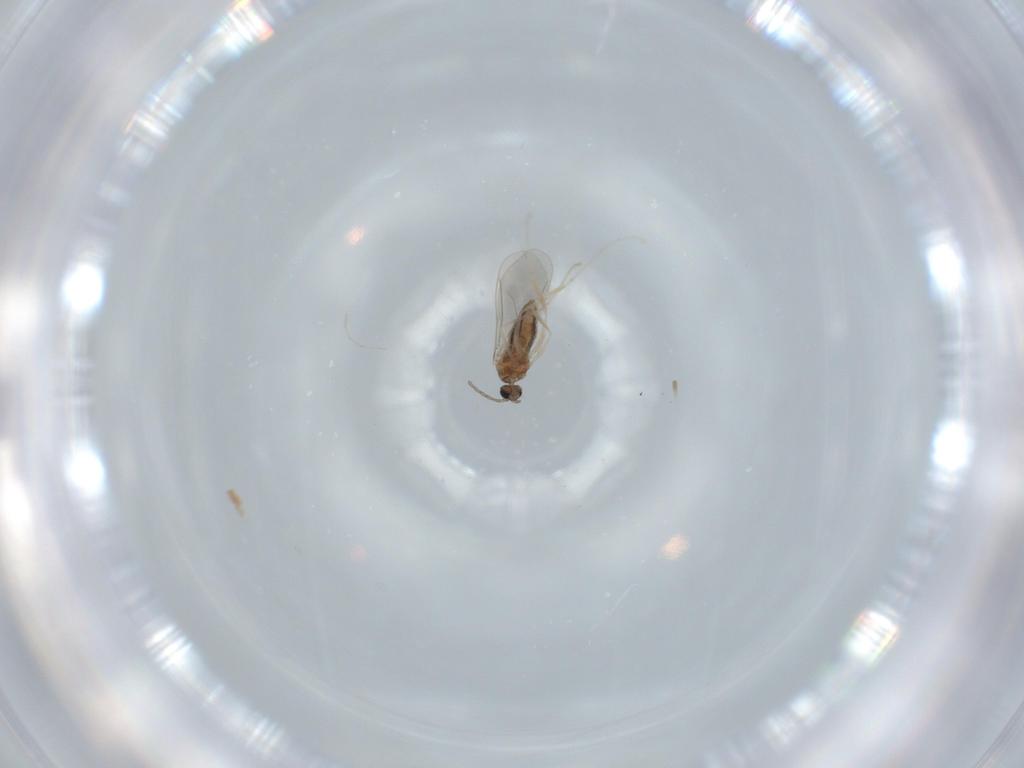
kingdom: Animalia
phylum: Arthropoda
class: Insecta
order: Diptera
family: Cecidomyiidae
